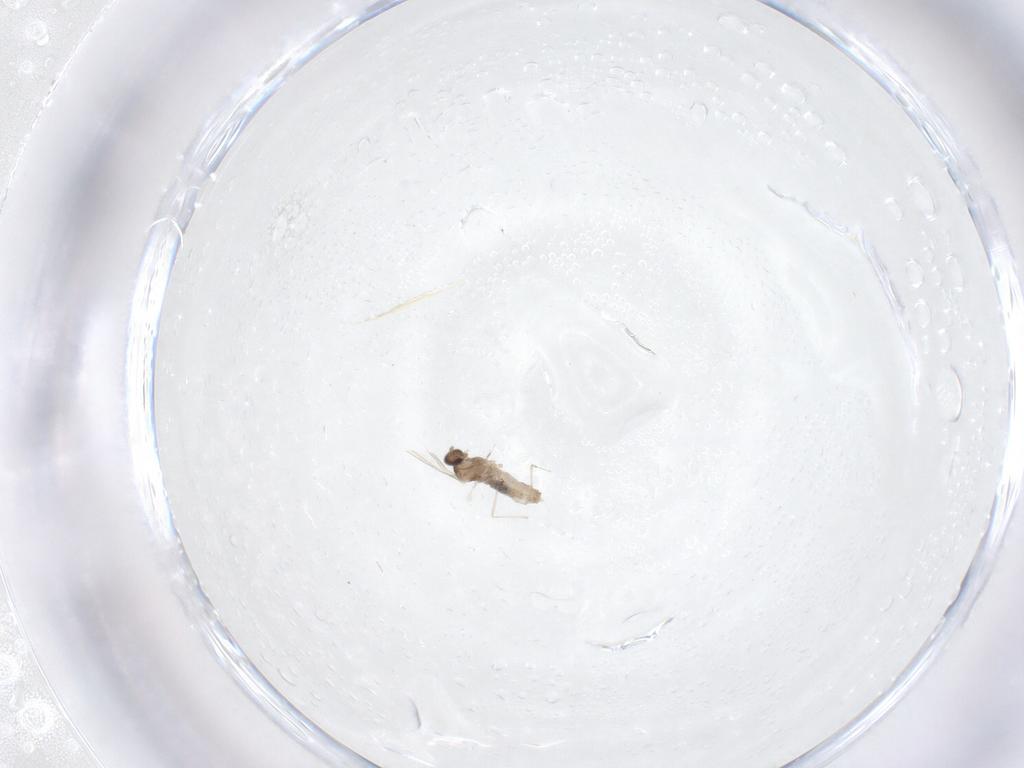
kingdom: Animalia
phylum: Arthropoda
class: Insecta
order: Diptera
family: Cecidomyiidae
